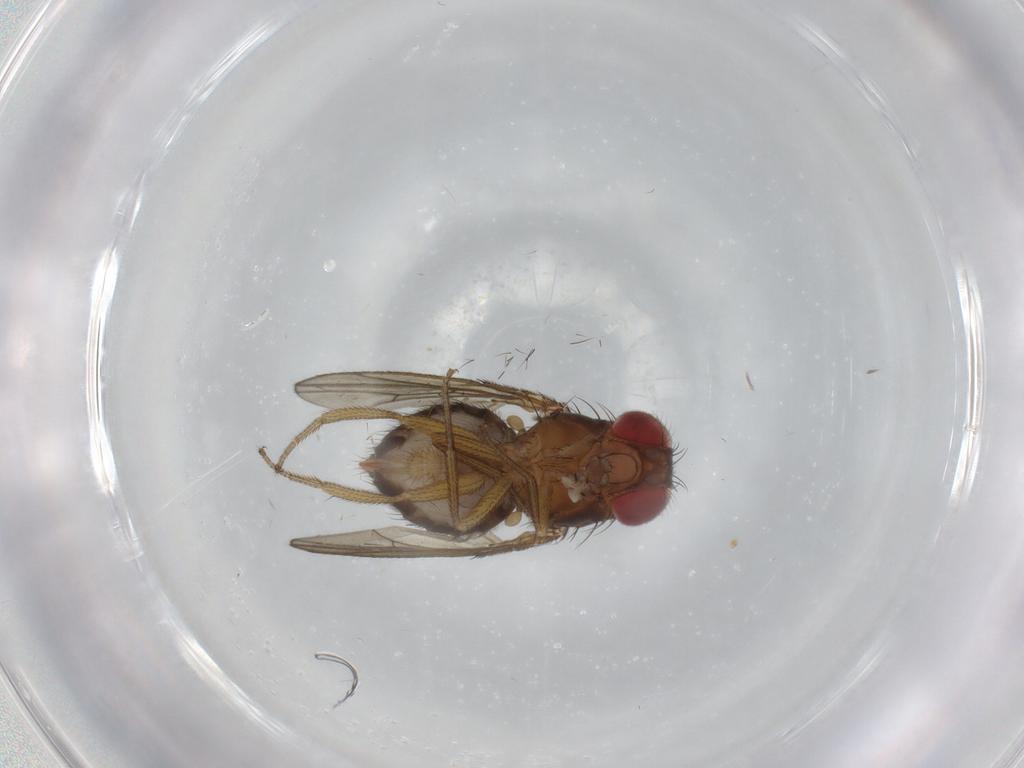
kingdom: Animalia
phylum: Arthropoda
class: Insecta
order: Diptera
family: Drosophilidae
